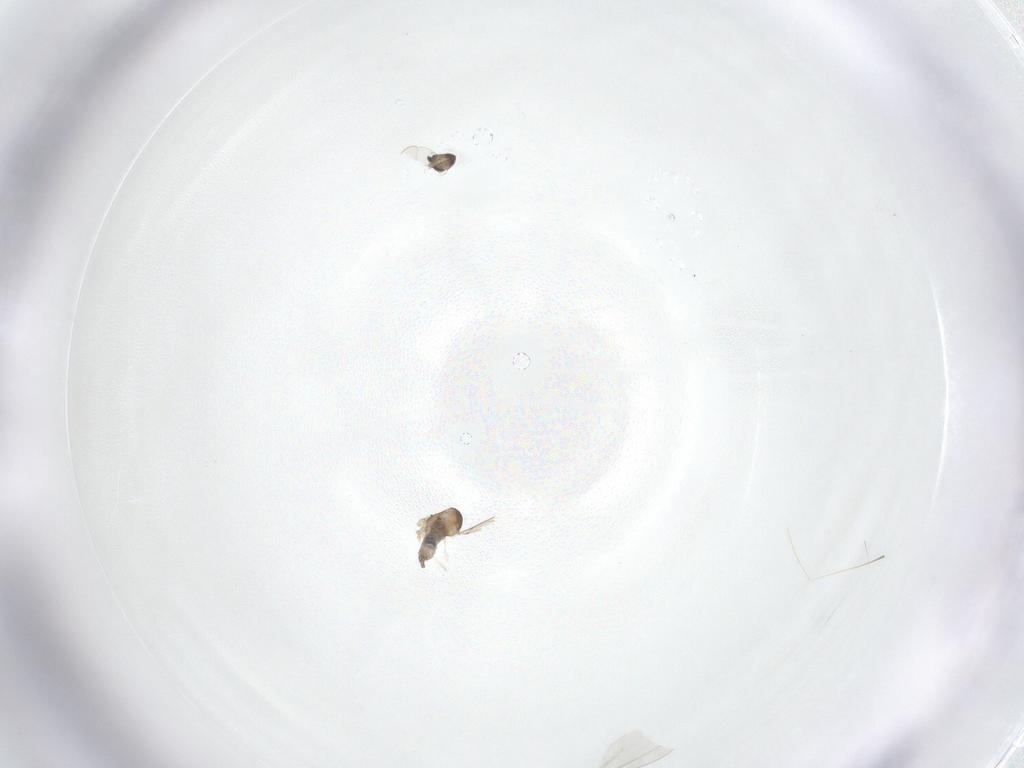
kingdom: Animalia
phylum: Arthropoda
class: Insecta
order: Diptera
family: Cecidomyiidae
